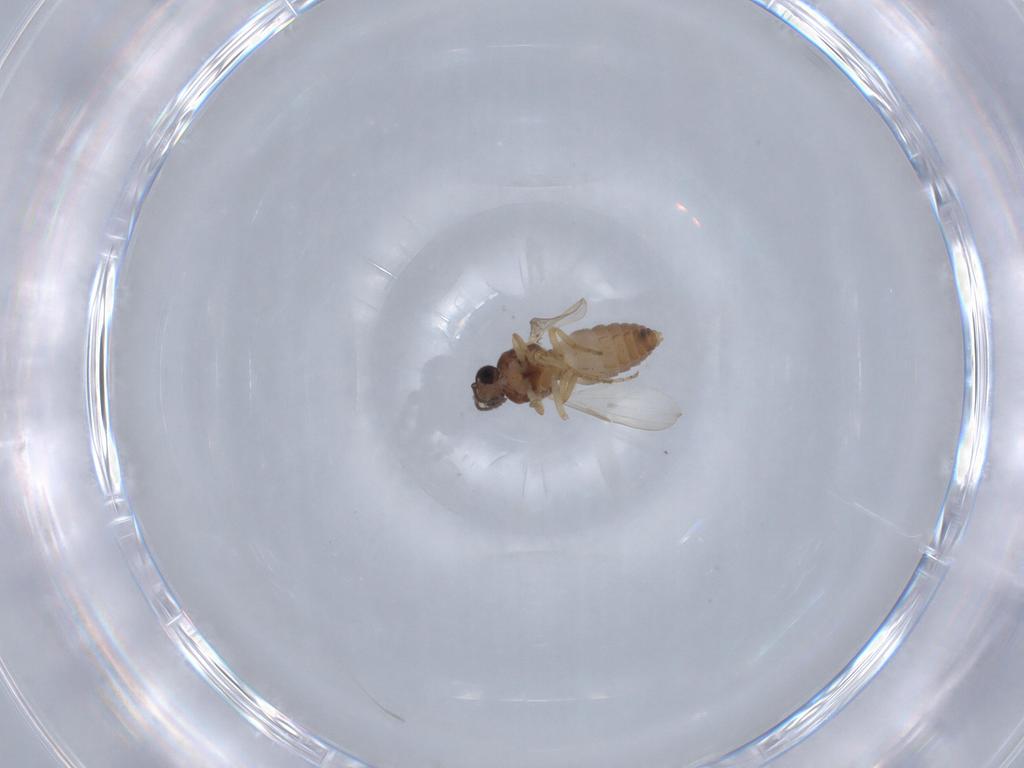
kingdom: Animalia
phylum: Arthropoda
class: Insecta
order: Diptera
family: Ceratopogonidae
